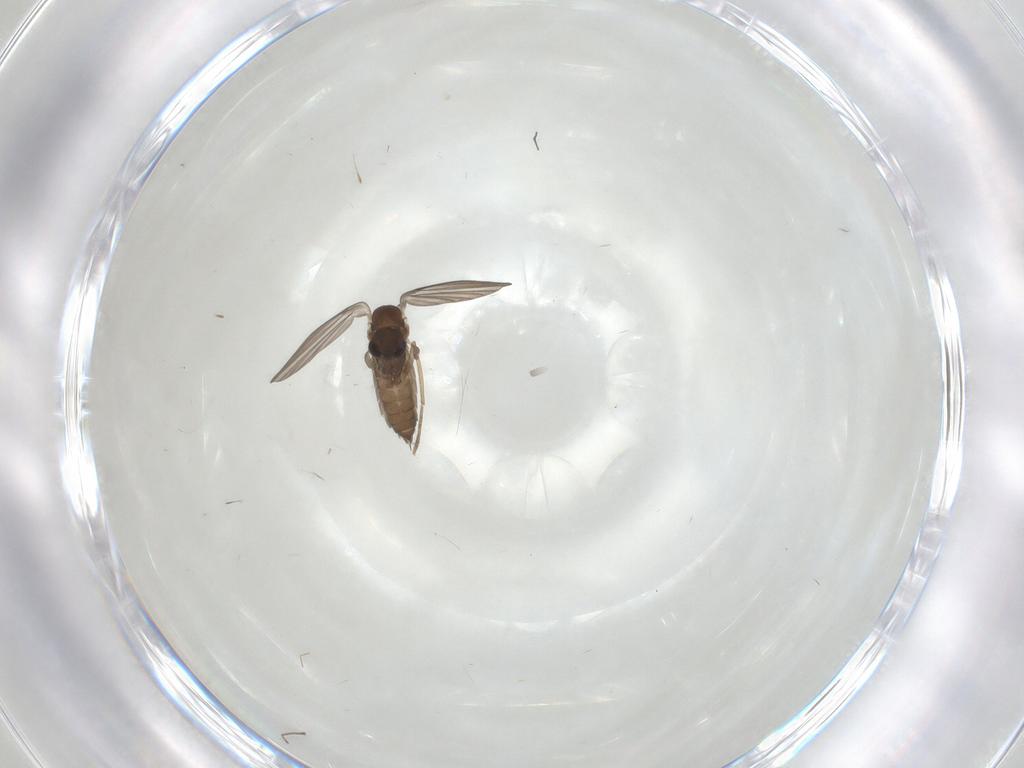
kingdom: Animalia
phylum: Arthropoda
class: Insecta
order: Diptera
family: Limoniidae
